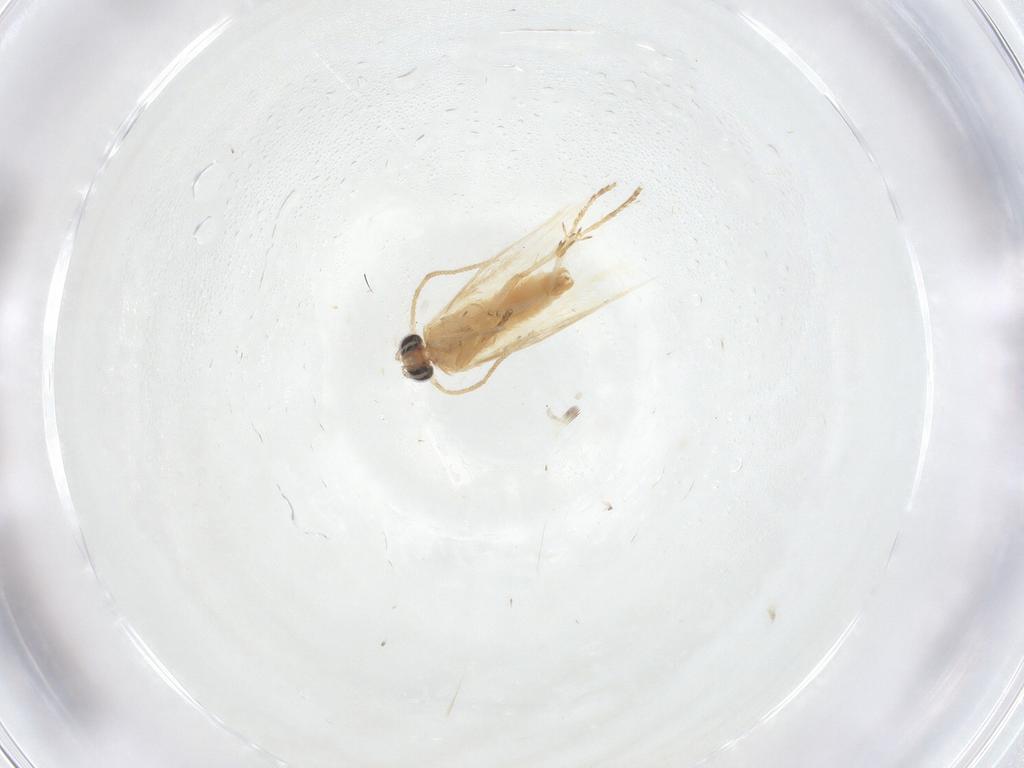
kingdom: Animalia
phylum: Arthropoda
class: Insecta
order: Lepidoptera
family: Nepticulidae
